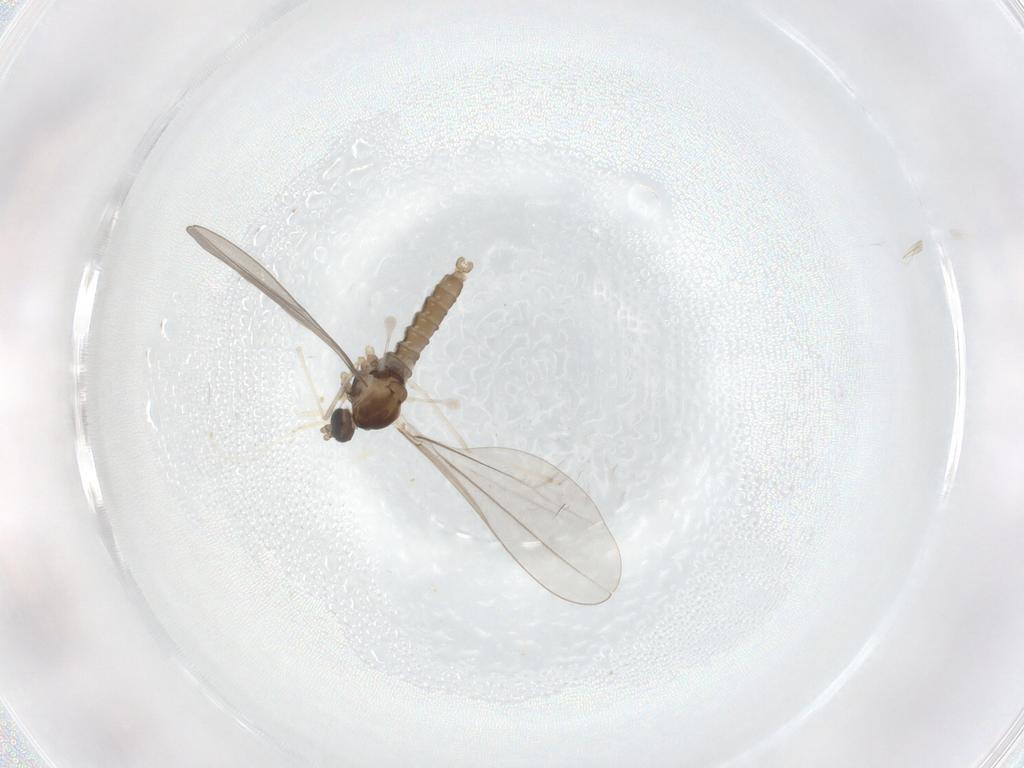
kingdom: Animalia
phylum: Arthropoda
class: Insecta
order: Diptera
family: Cecidomyiidae
